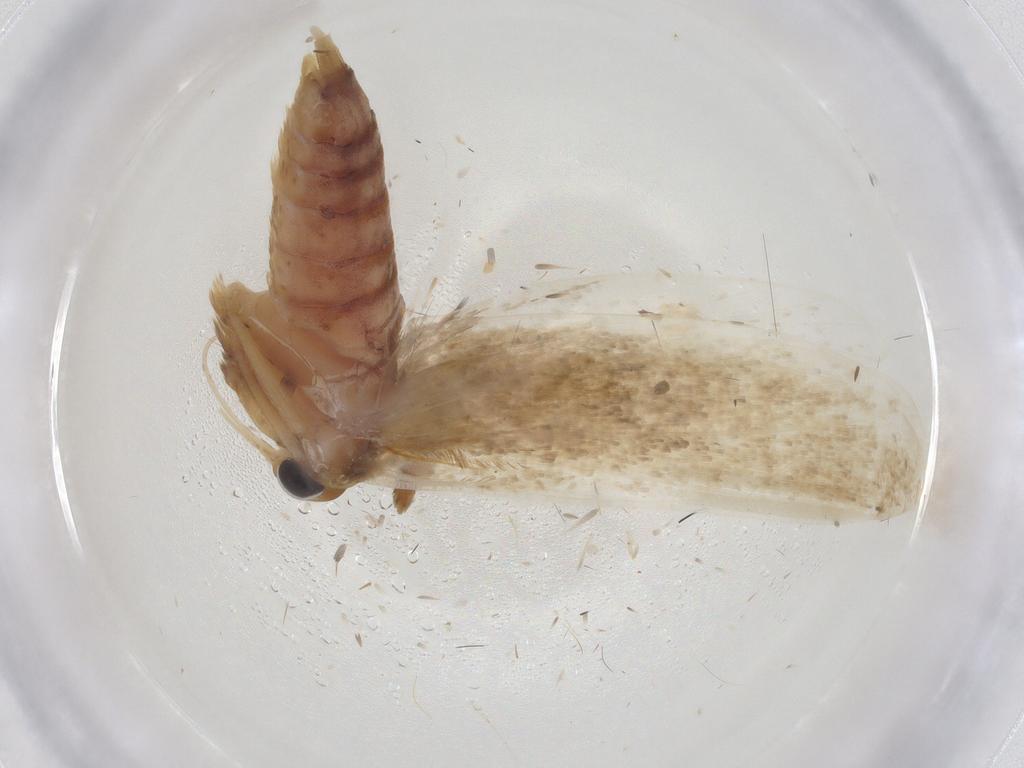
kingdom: Animalia
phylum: Arthropoda
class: Insecta
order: Lepidoptera
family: Blastobasidae
